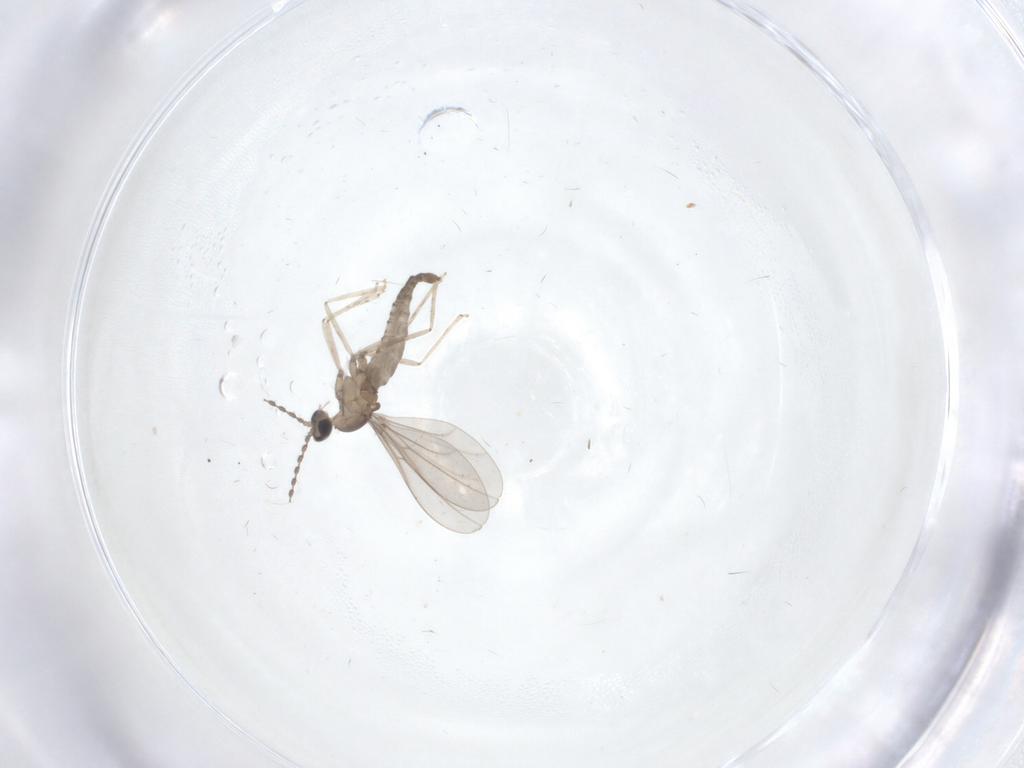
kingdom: Animalia
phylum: Arthropoda
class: Insecta
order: Diptera
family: Cecidomyiidae
